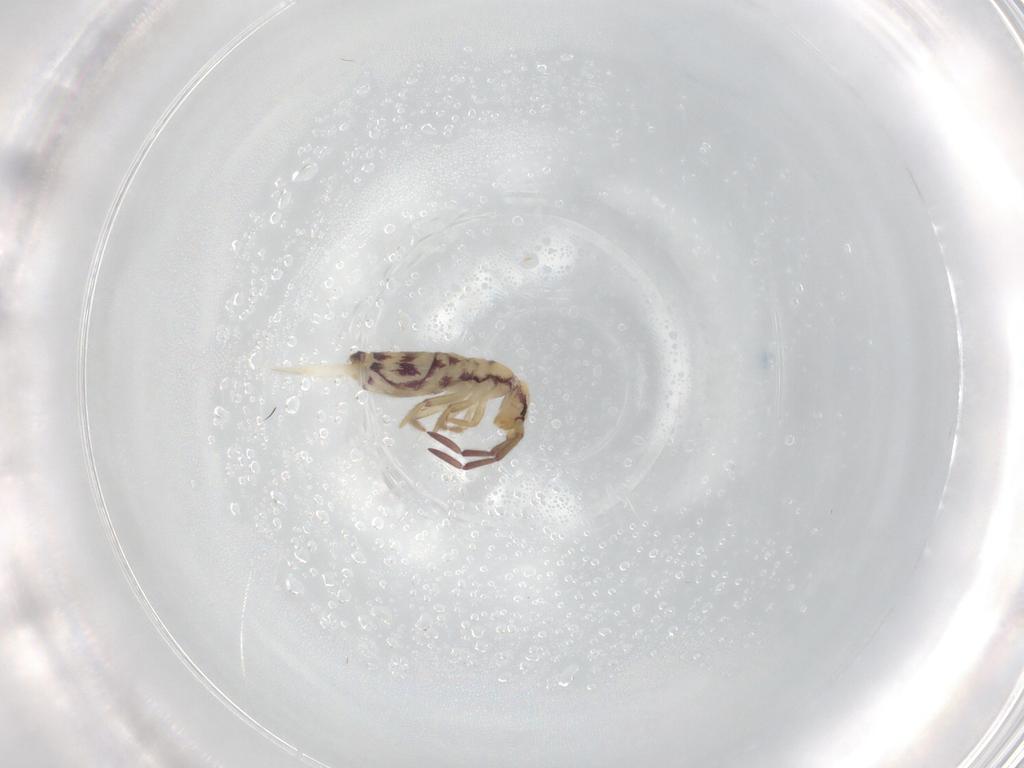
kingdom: Animalia
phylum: Arthropoda
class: Collembola
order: Entomobryomorpha
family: Entomobryidae
